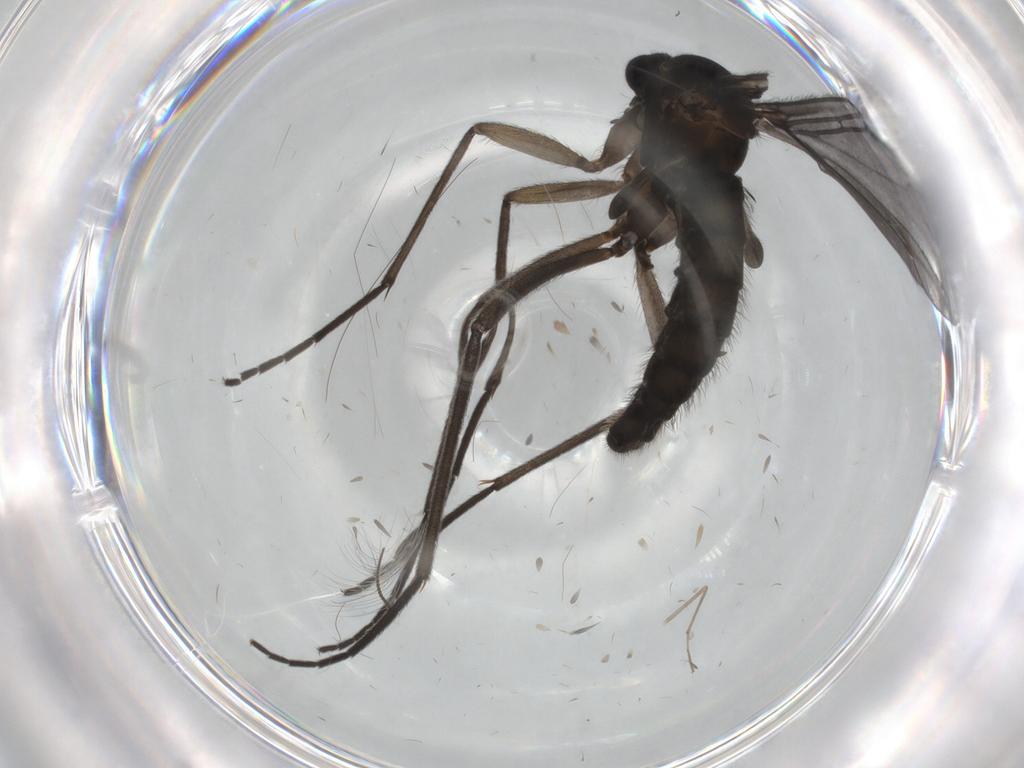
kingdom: Animalia
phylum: Arthropoda
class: Insecta
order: Diptera
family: Sciaridae
